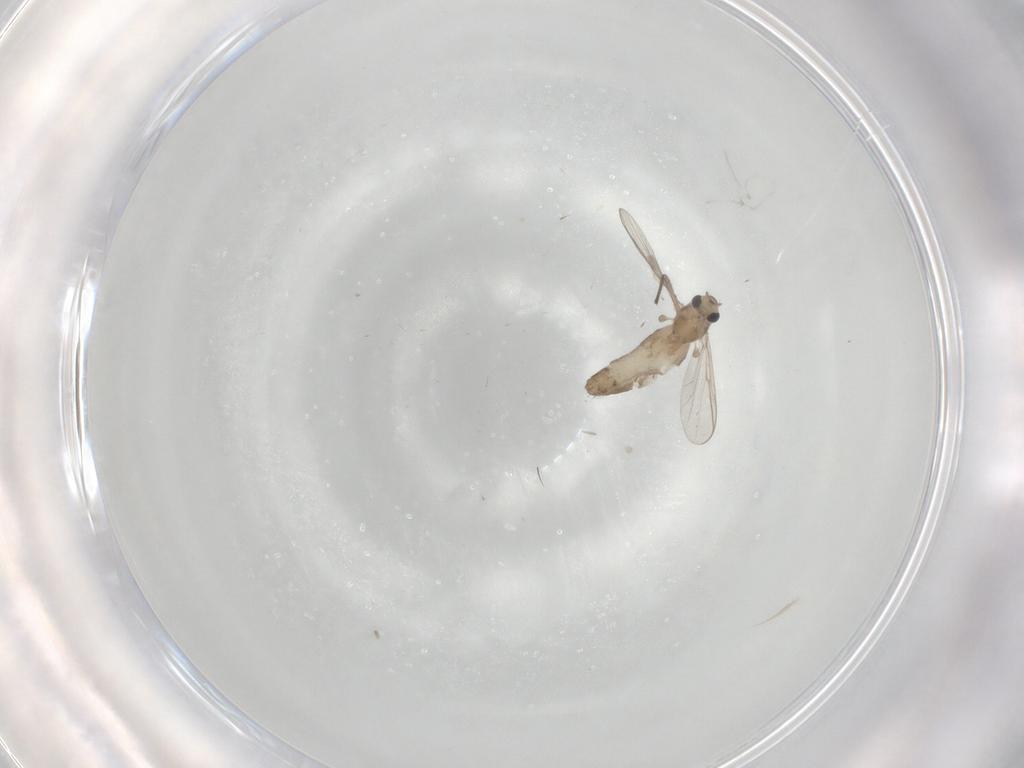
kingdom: Animalia
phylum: Arthropoda
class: Insecta
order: Diptera
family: Chironomidae
